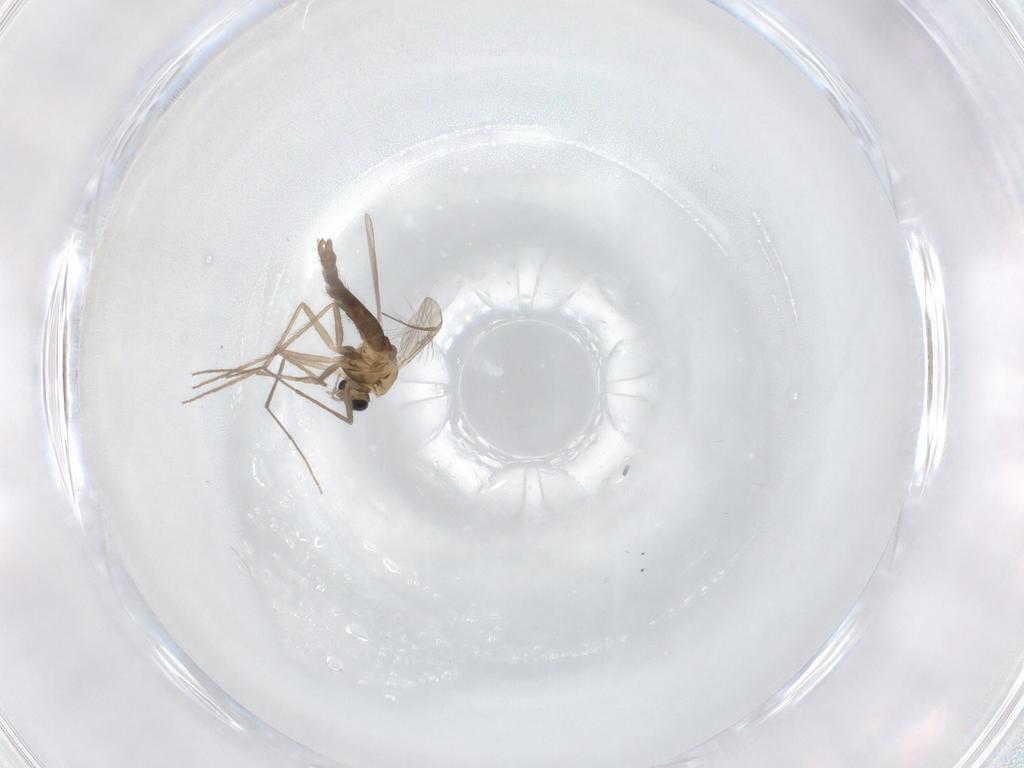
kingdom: Animalia
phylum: Arthropoda
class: Insecta
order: Diptera
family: Chironomidae
